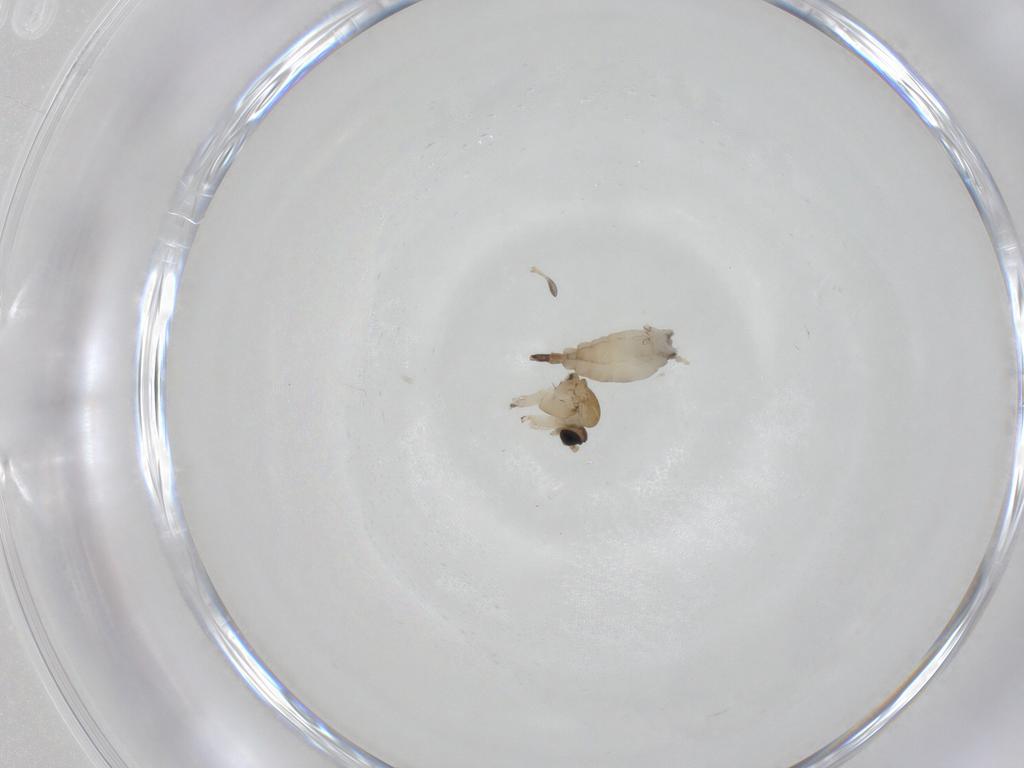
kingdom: Animalia
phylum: Arthropoda
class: Insecta
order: Diptera
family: Sciaridae
